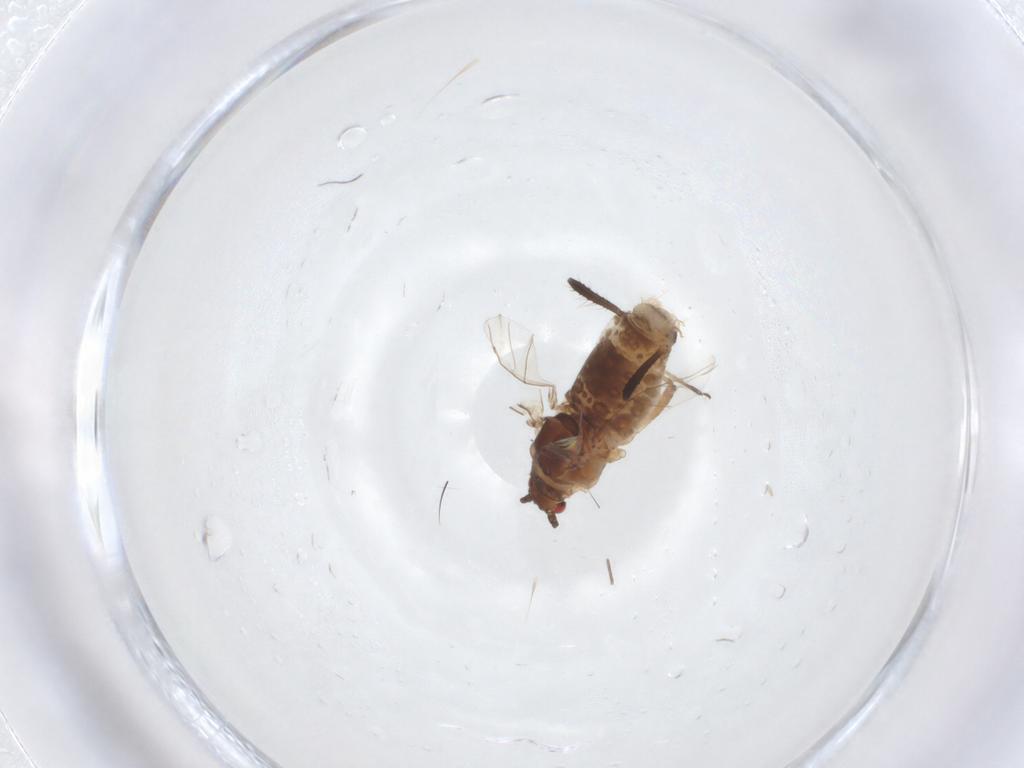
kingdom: Animalia
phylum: Arthropoda
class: Insecta
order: Hemiptera
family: Aphididae
